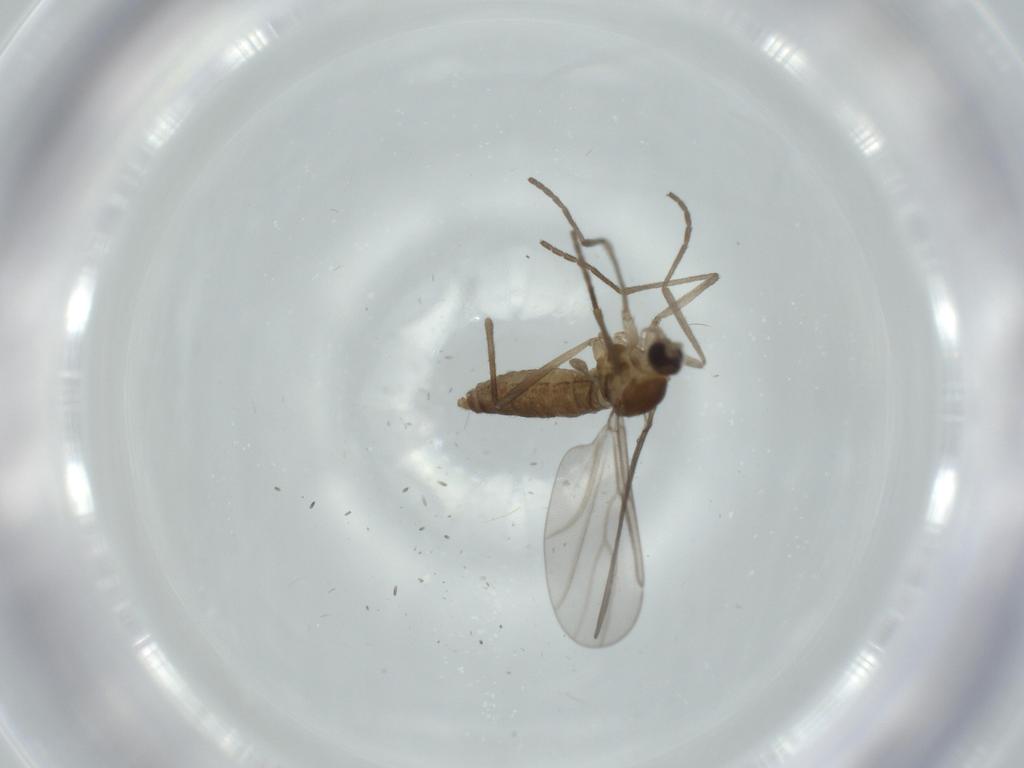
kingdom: Animalia
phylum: Arthropoda
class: Insecta
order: Diptera
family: Cecidomyiidae
